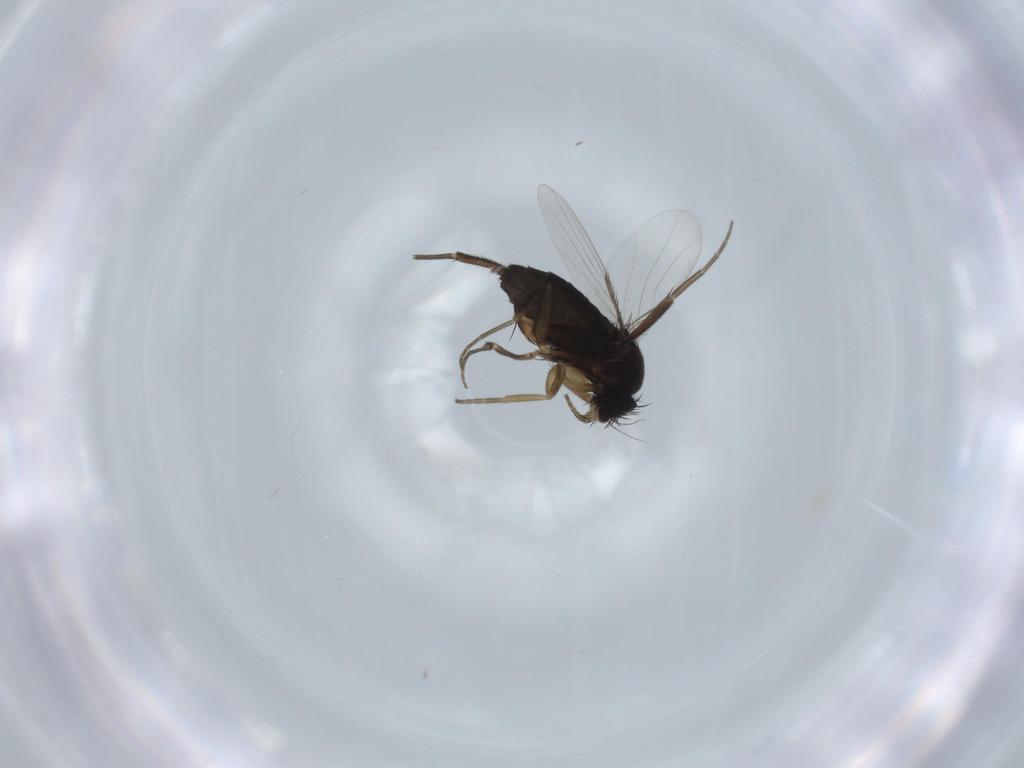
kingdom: Animalia
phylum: Arthropoda
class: Insecta
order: Diptera
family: Phoridae
